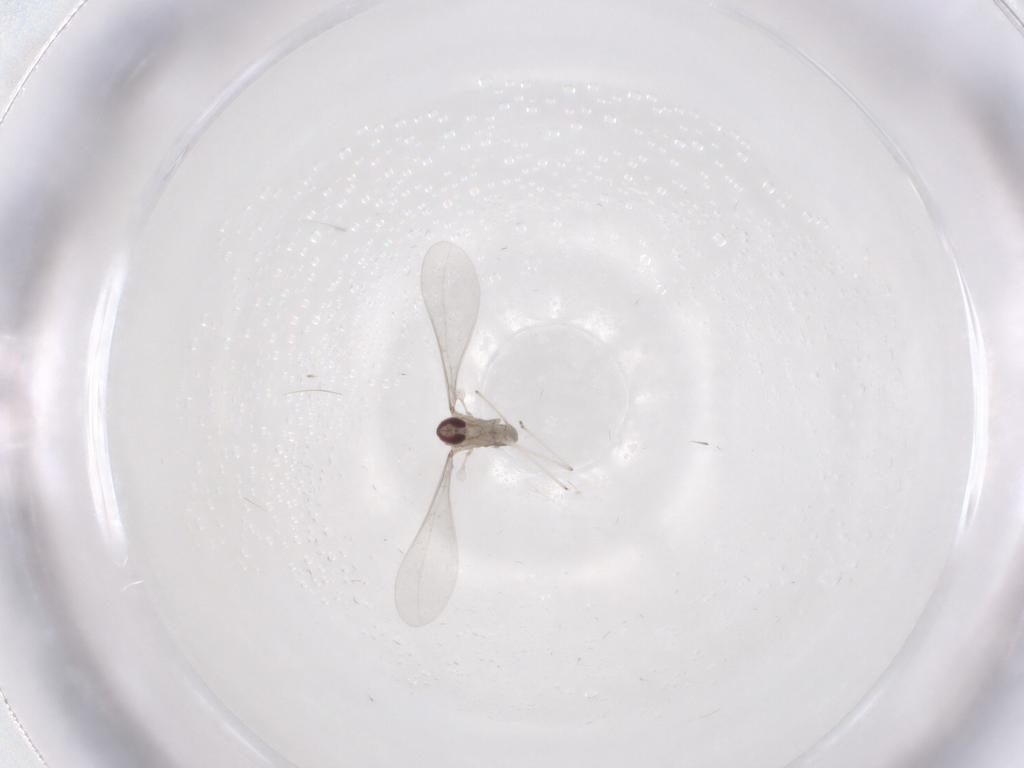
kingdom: Animalia
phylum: Arthropoda
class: Insecta
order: Diptera
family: Cecidomyiidae
